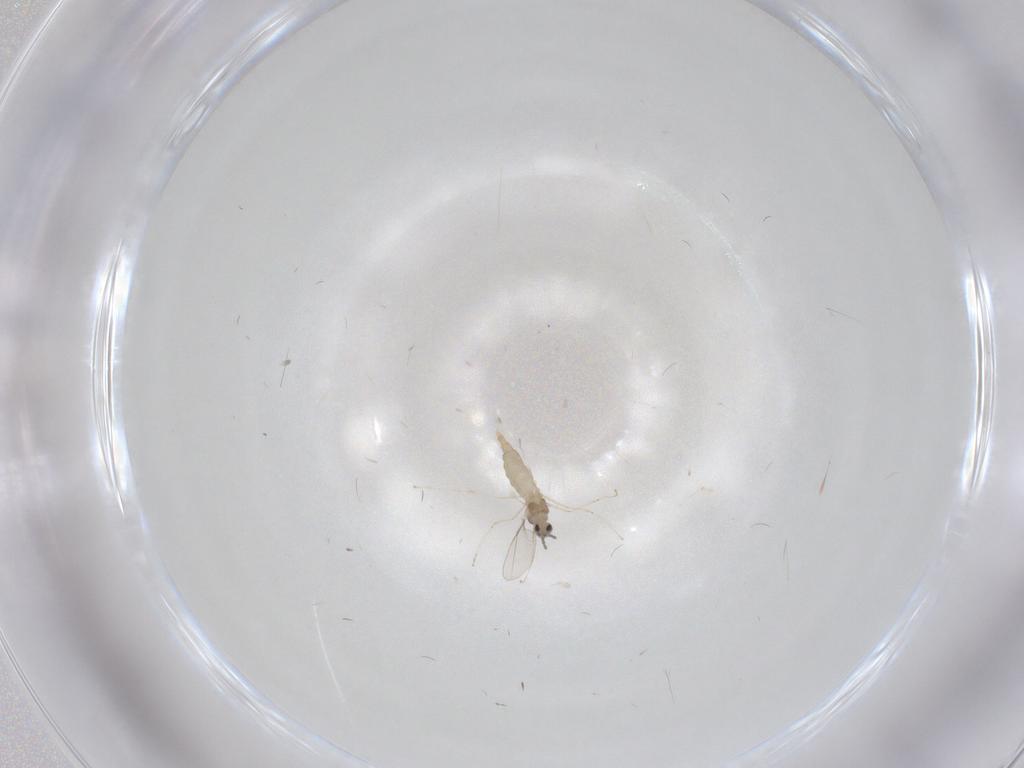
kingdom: Animalia
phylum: Arthropoda
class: Insecta
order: Diptera
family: Cecidomyiidae
